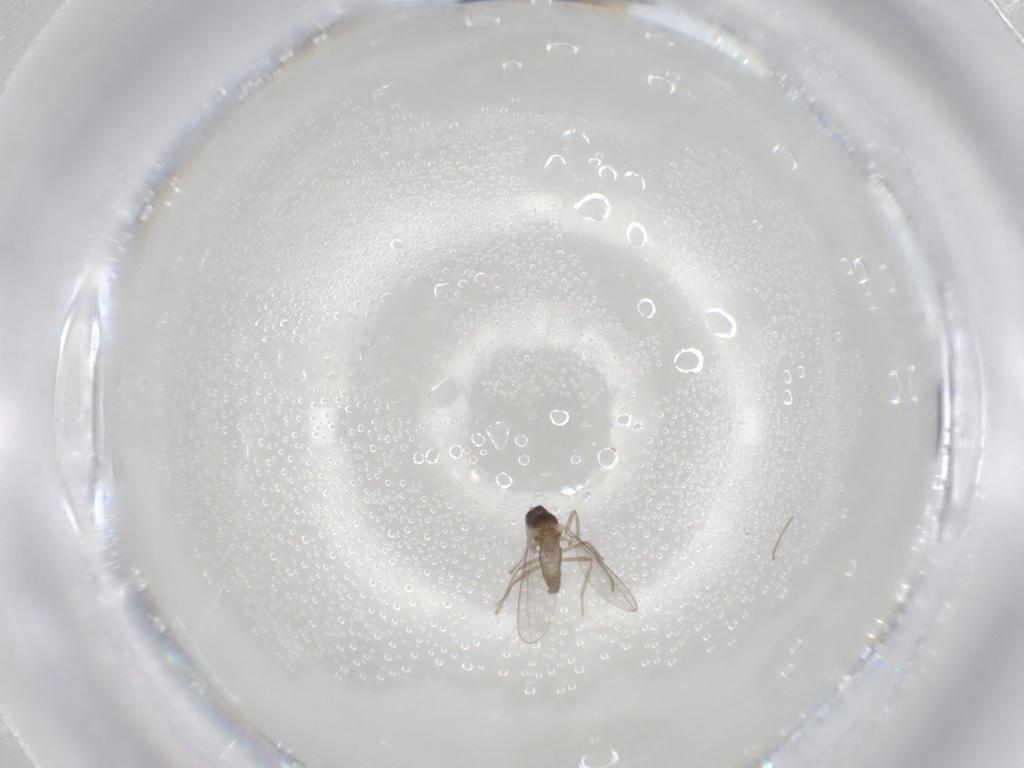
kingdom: Animalia
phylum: Arthropoda
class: Insecta
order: Diptera
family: Cecidomyiidae
